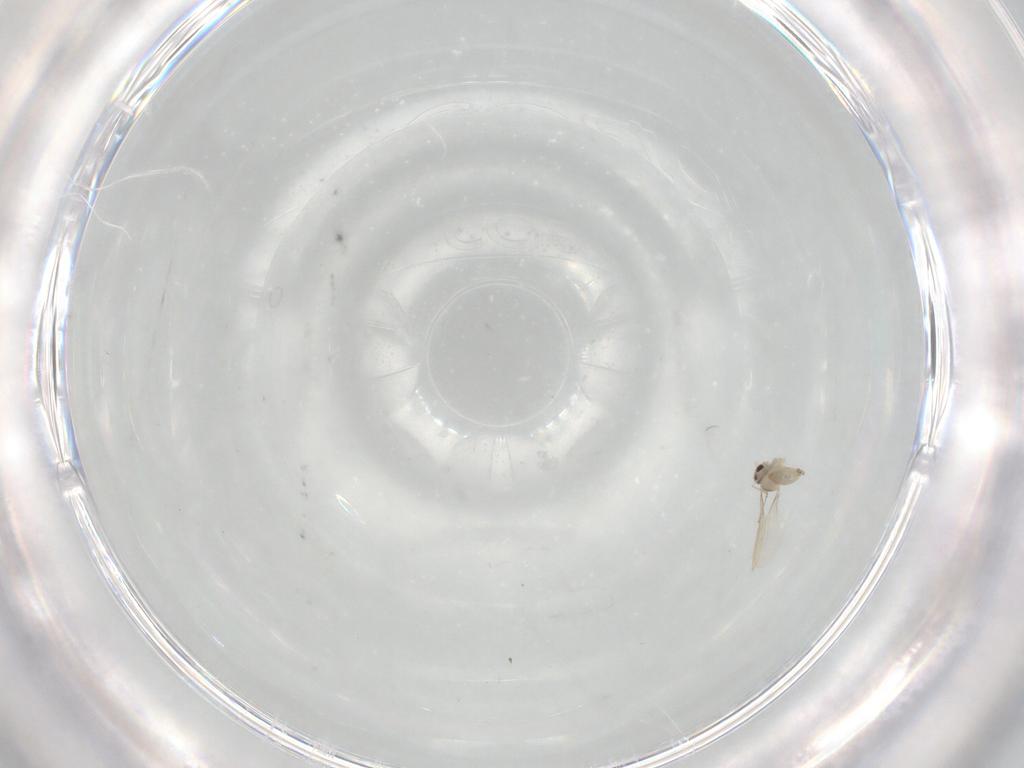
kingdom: Animalia
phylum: Arthropoda
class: Insecta
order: Diptera
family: Cecidomyiidae
